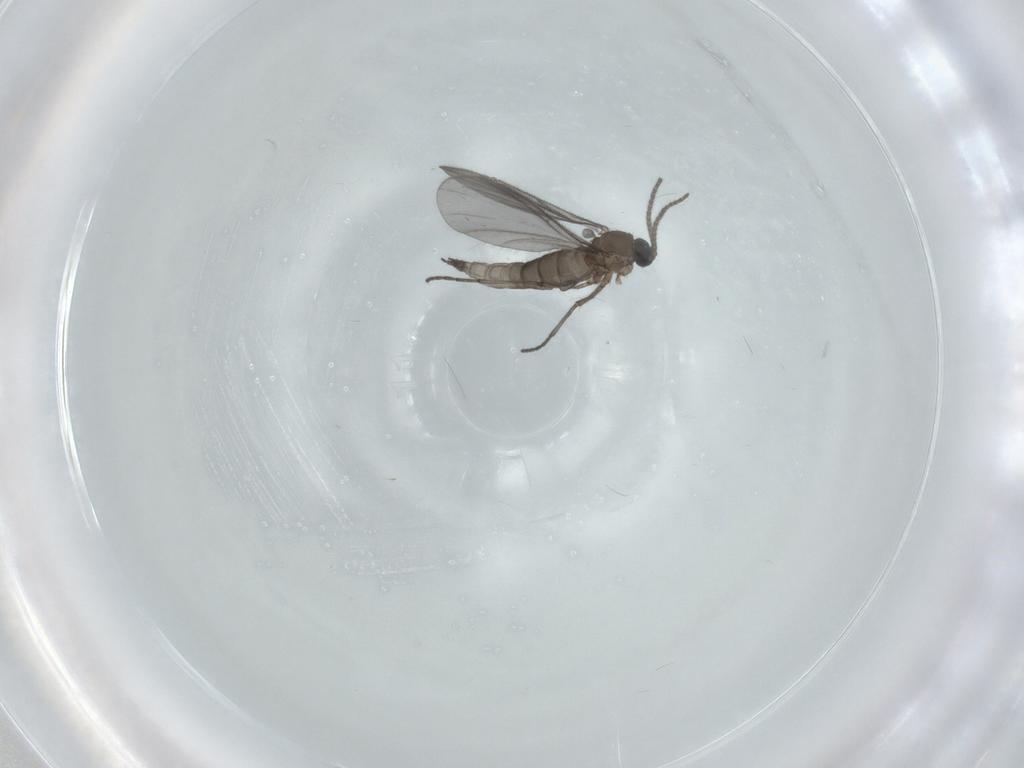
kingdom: Animalia
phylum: Arthropoda
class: Insecta
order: Diptera
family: Sciaridae
